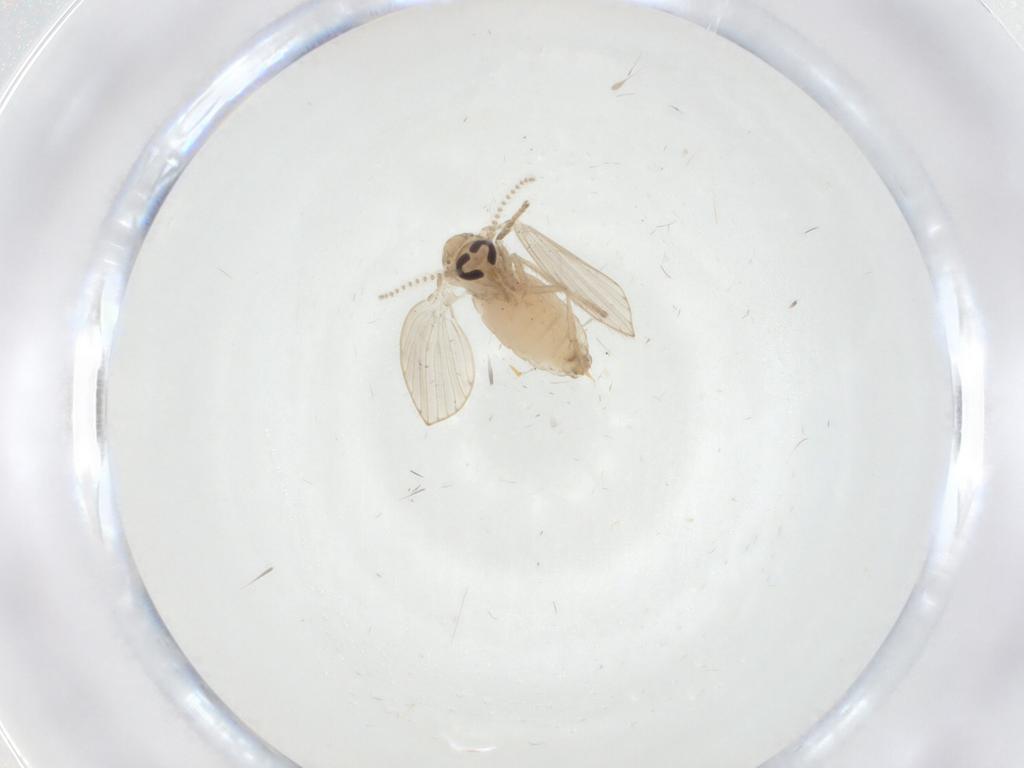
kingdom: Animalia
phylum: Arthropoda
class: Insecta
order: Diptera
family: Psychodidae
